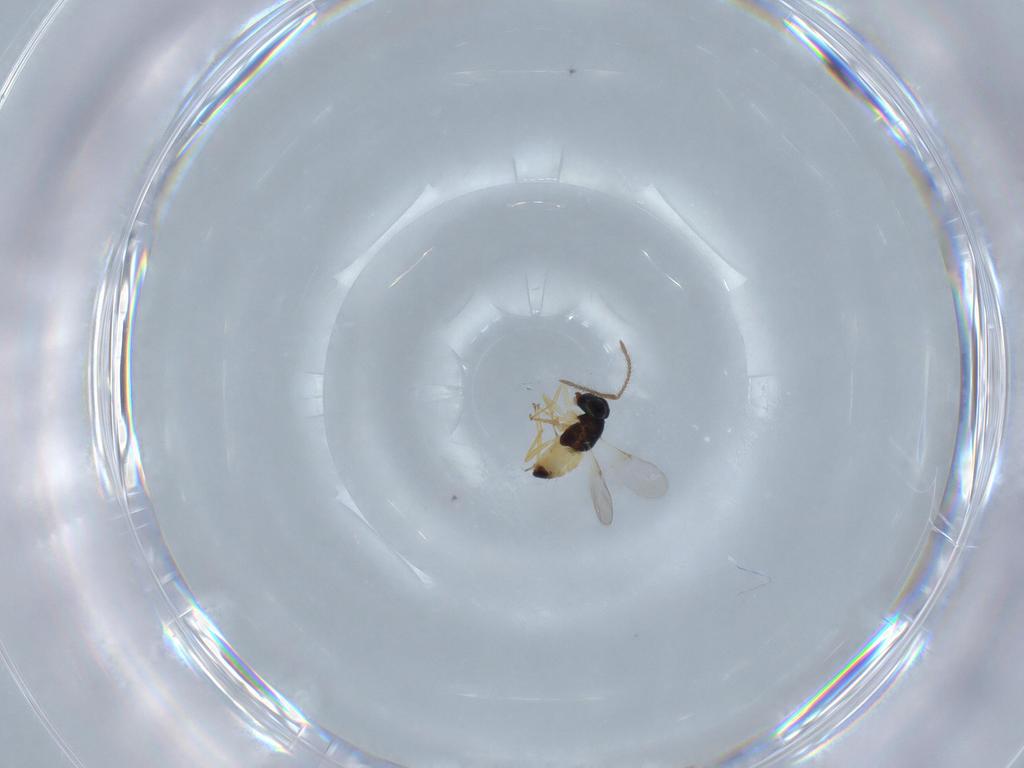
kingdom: Animalia
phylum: Arthropoda
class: Insecta
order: Hymenoptera
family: Encyrtidae
